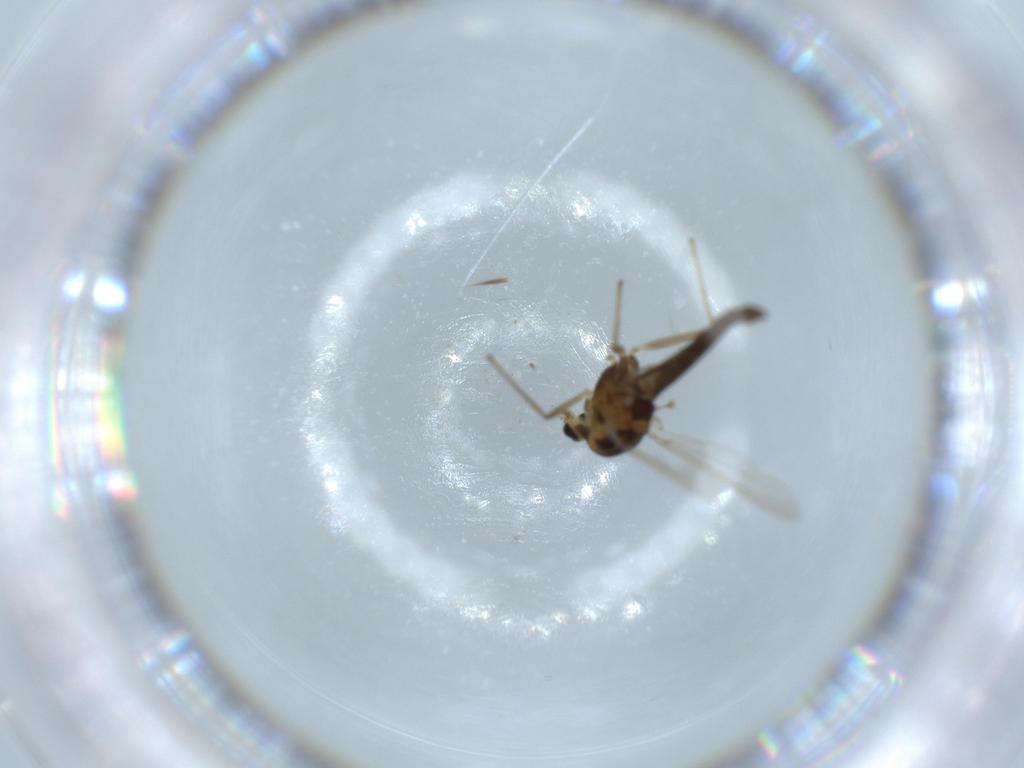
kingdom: Animalia
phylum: Arthropoda
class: Insecta
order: Diptera
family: Chironomidae
